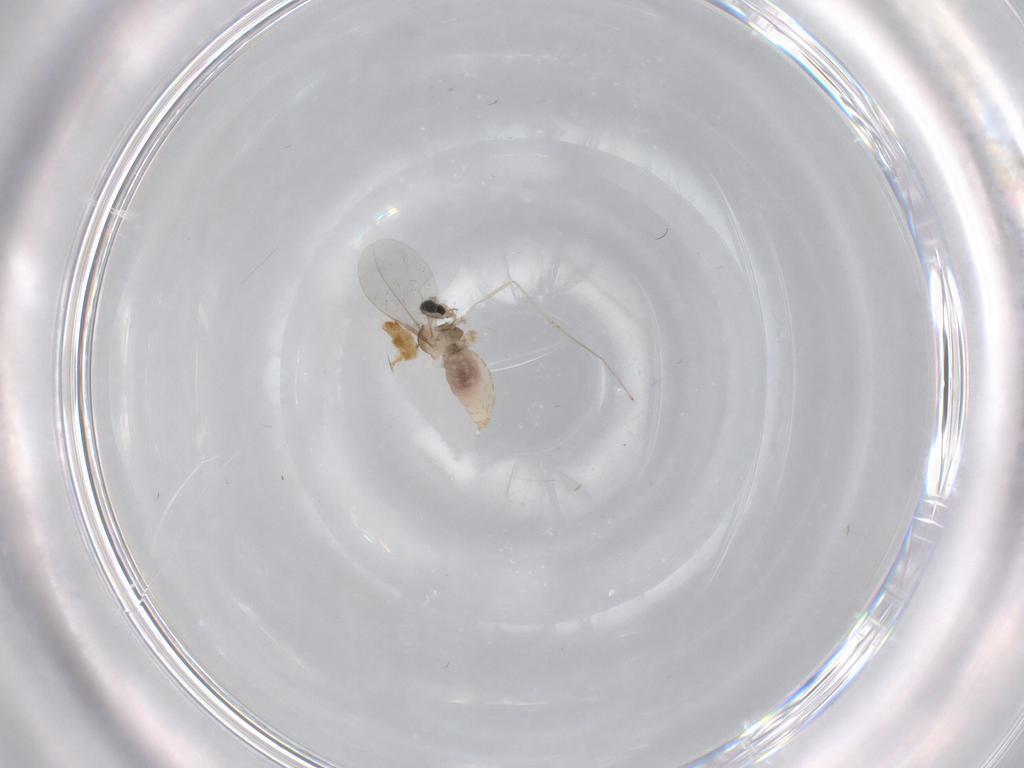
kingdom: Animalia
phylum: Arthropoda
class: Insecta
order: Diptera
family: Cecidomyiidae
